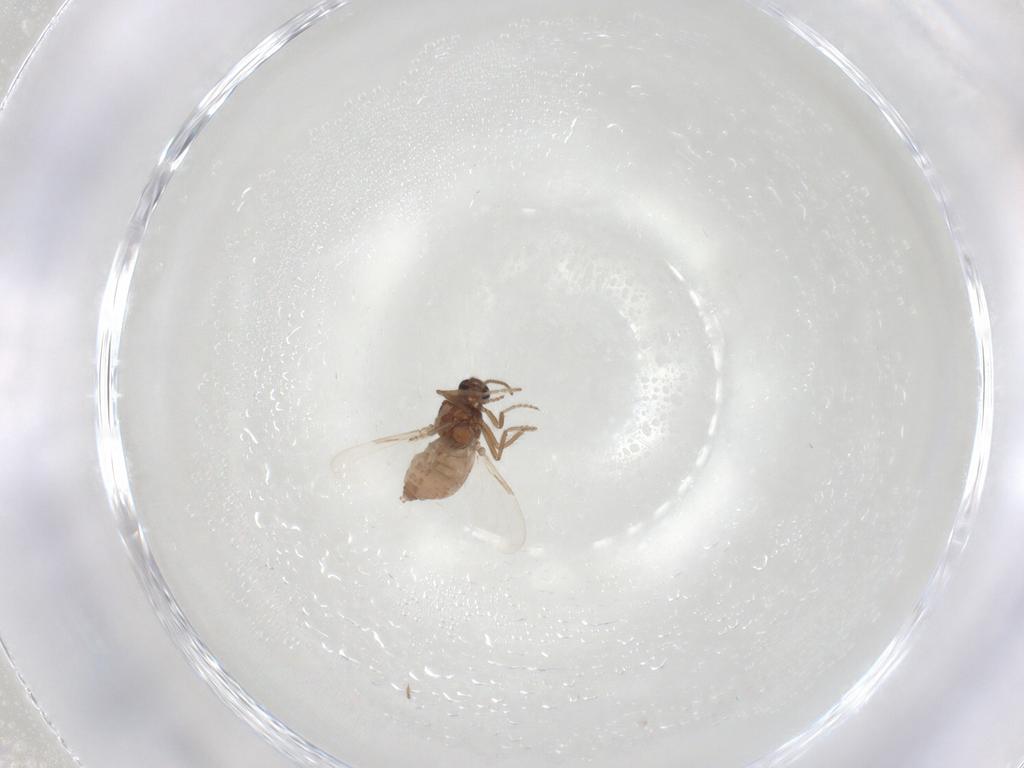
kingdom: Animalia
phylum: Arthropoda
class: Insecta
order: Diptera
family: Ceratopogonidae
